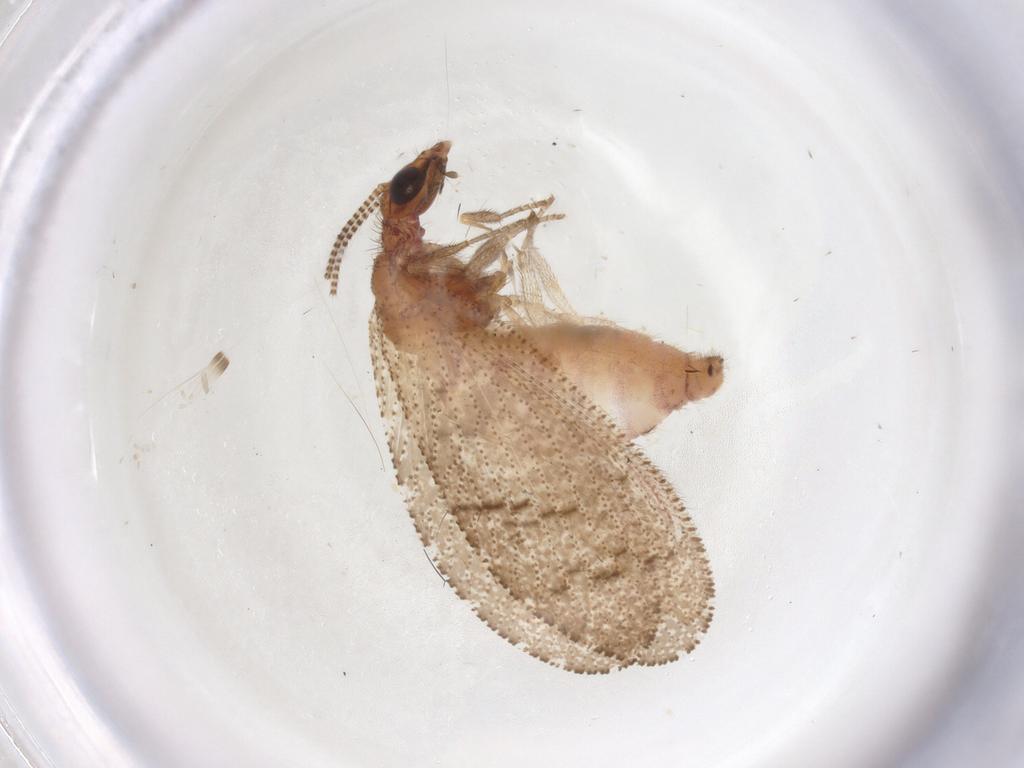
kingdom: Animalia
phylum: Arthropoda
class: Insecta
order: Neuroptera
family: Hemerobiidae
